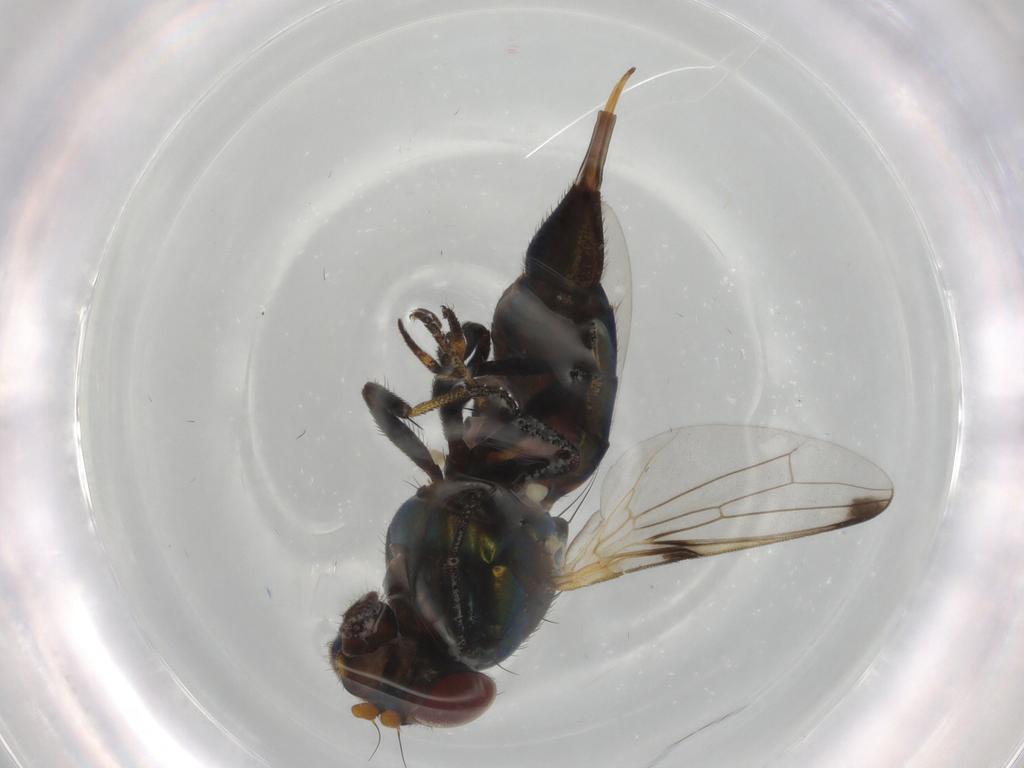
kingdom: Animalia
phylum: Arthropoda
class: Insecta
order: Diptera
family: Ulidiidae
